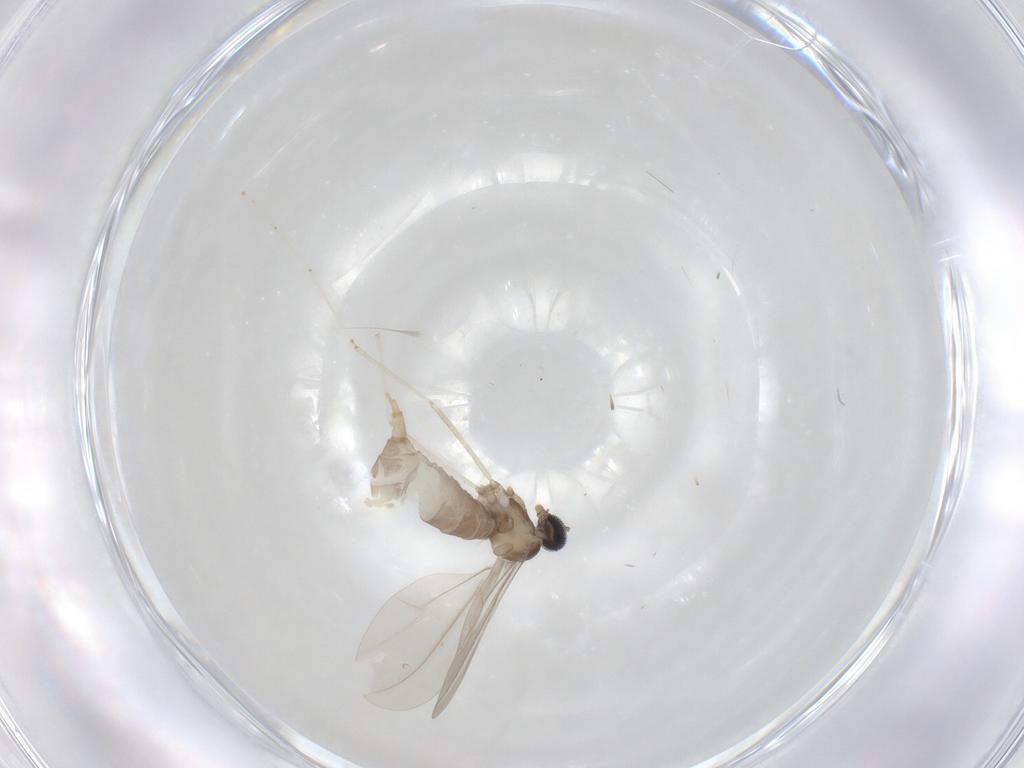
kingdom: Animalia
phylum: Arthropoda
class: Insecta
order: Diptera
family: Cecidomyiidae
